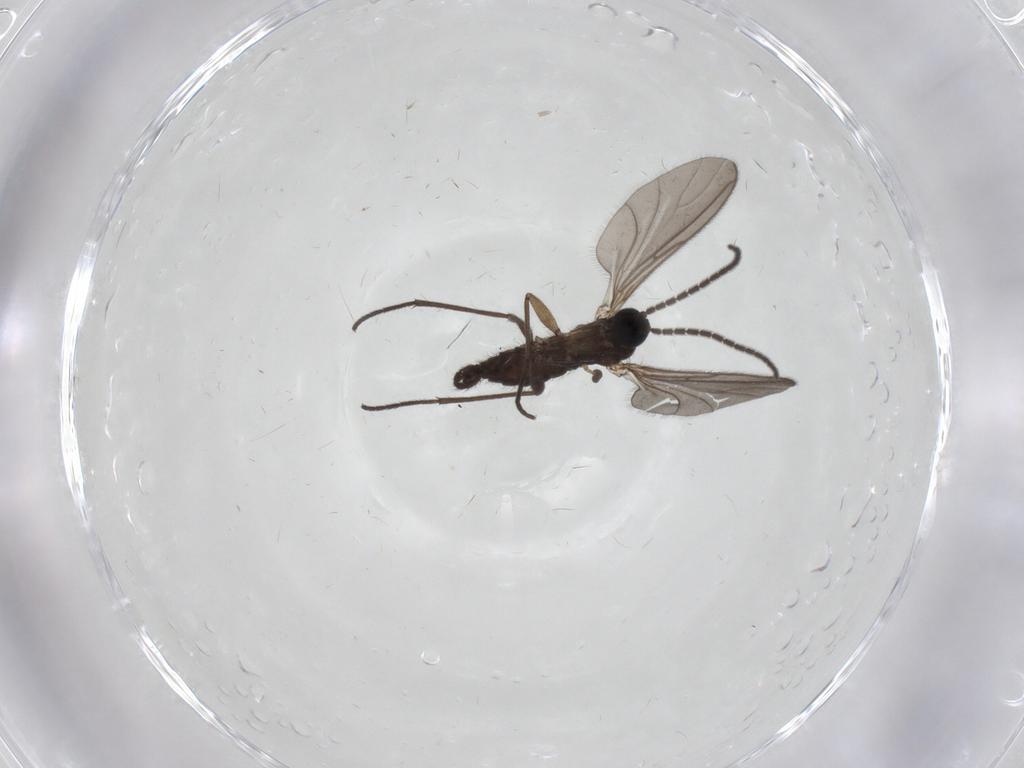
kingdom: Animalia
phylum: Arthropoda
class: Insecta
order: Diptera
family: Sciaridae
